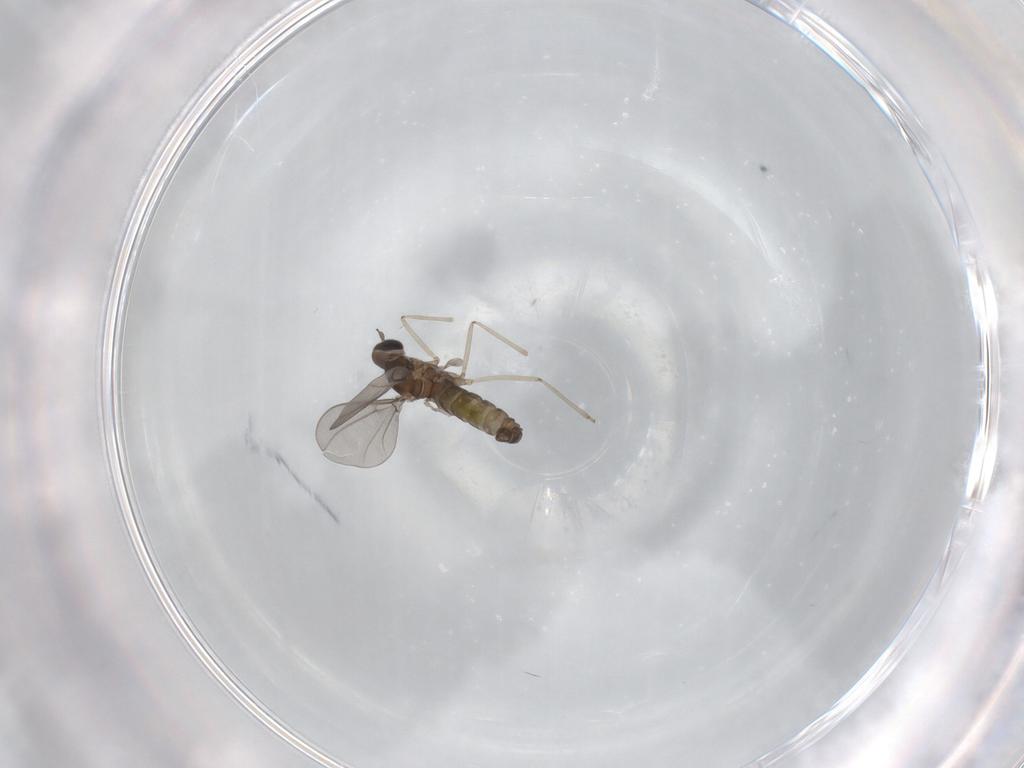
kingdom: Animalia
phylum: Arthropoda
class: Insecta
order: Diptera
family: Cecidomyiidae
